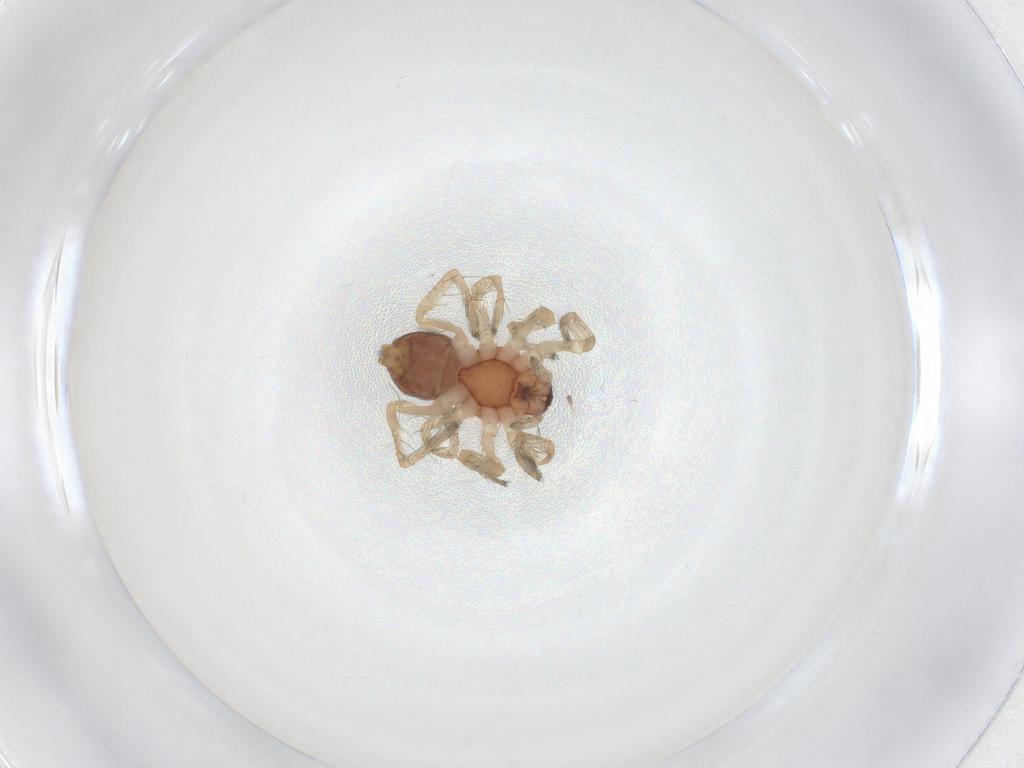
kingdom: Animalia
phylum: Arthropoda
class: Arachnida
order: Araneae
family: Anyphaenidae
